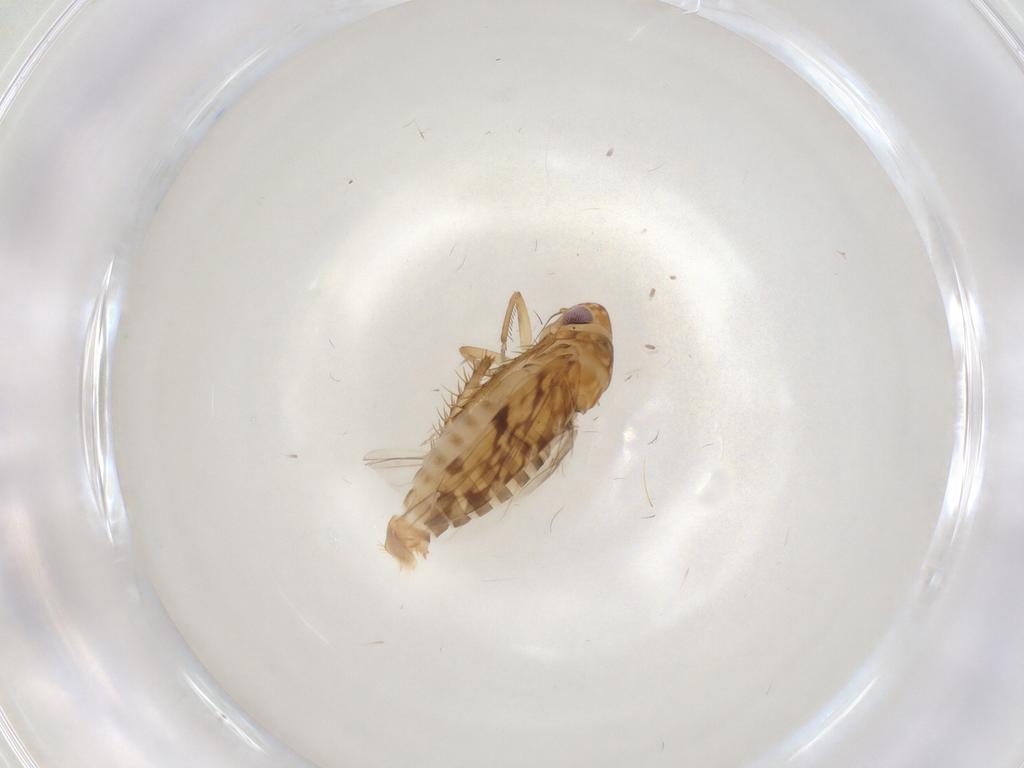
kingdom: Animalia
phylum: Arthropoda
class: Insecta
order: Hemiptera
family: Cicadellidae
